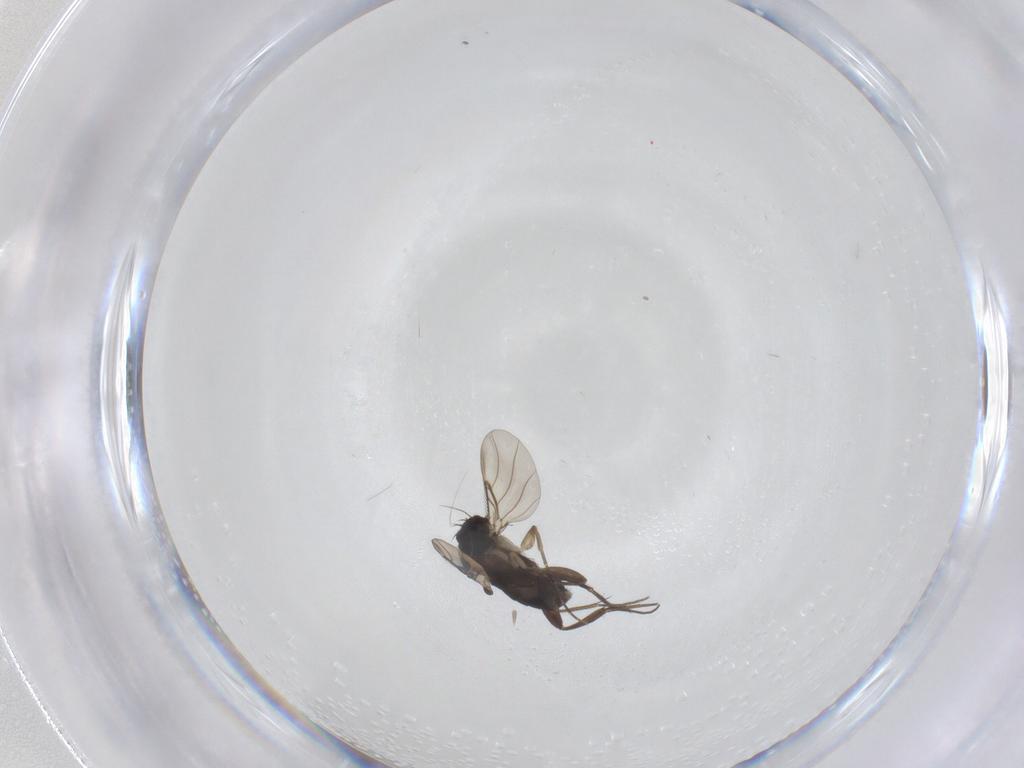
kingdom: Animalia
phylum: Arthropoda
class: Insecta
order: Diptera
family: Phoridae
